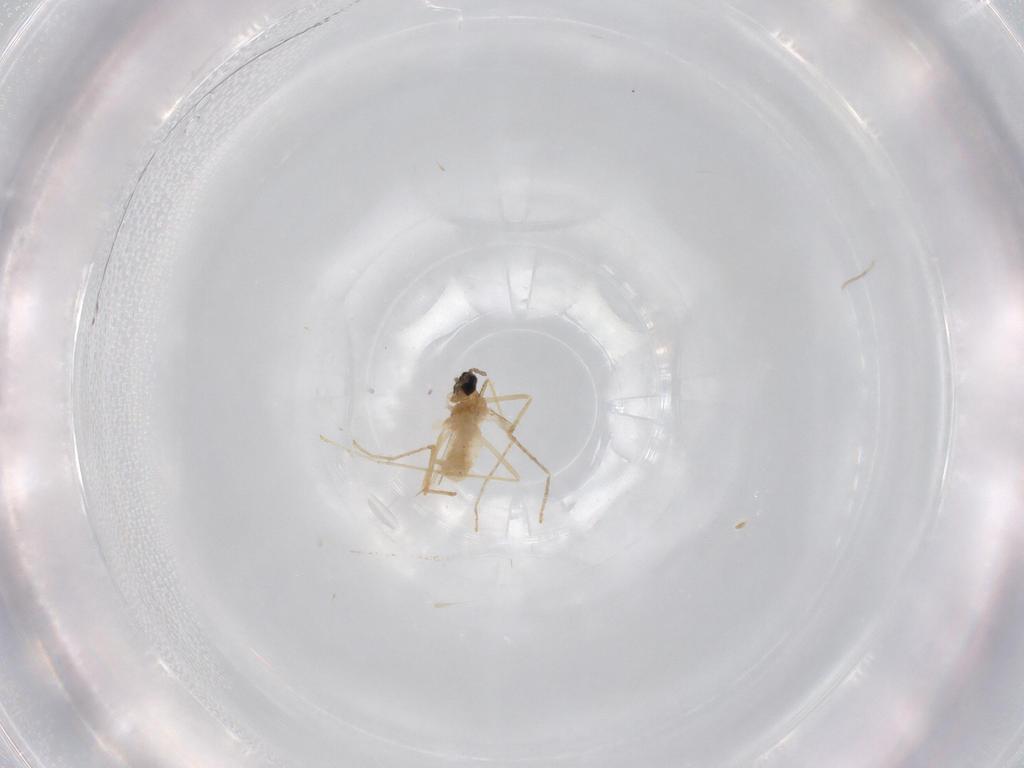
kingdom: Animalia
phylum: Arthropoda
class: Insecta
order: Diptera
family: Cecidomyiidae
